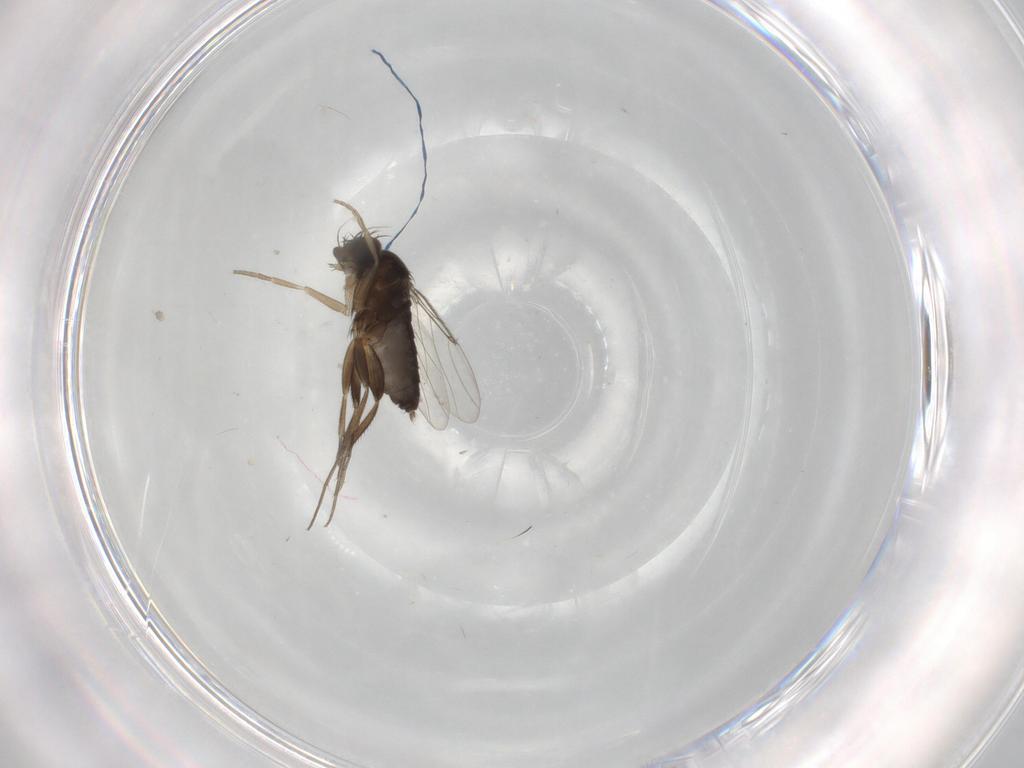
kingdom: Animalia
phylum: Arthropoda
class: Insecta
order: Diptera
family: Phoridae
